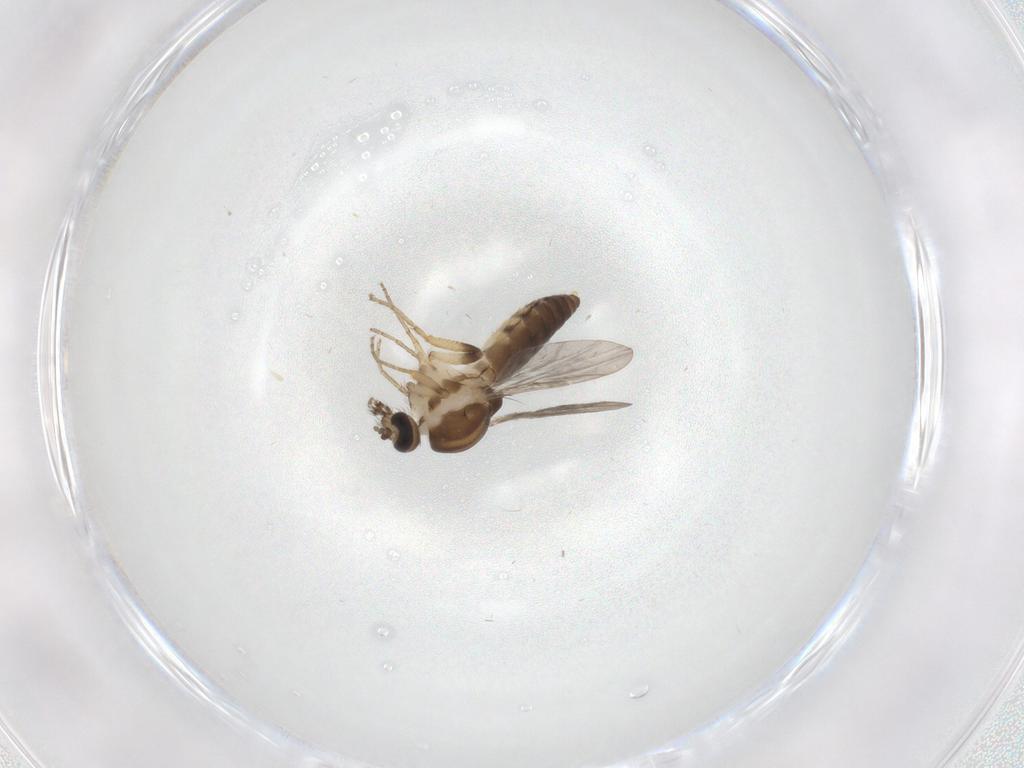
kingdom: Animalia
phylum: Arthropoda
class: Insecta
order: Diptera
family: Ceratopogonidae
